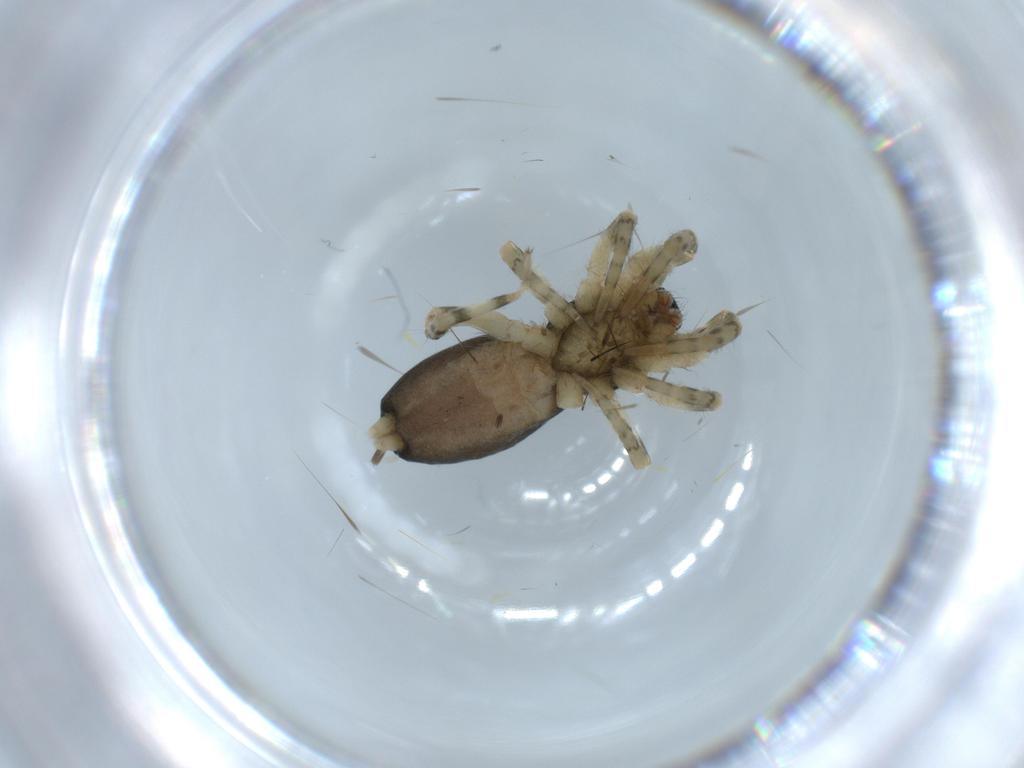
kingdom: Animalia
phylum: Arthropoda
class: Arachnida
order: Araneae
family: Gnaphosidae
